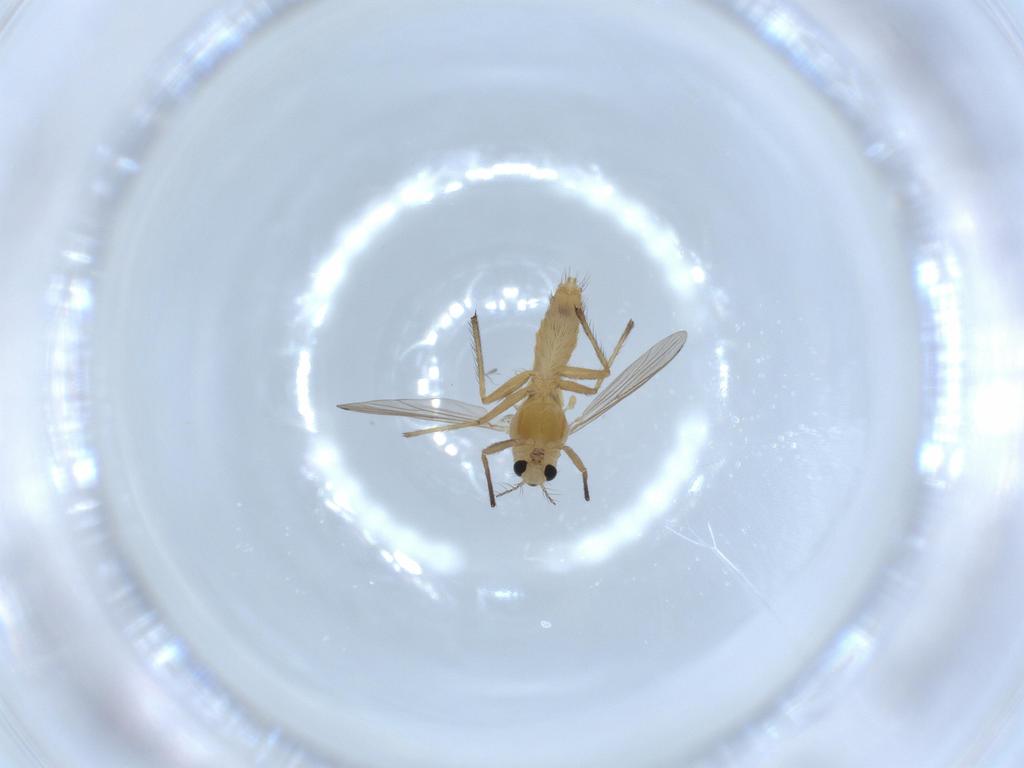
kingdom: Animalia
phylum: Arthropoda
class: Insecta
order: Diptera
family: Chironomidae
